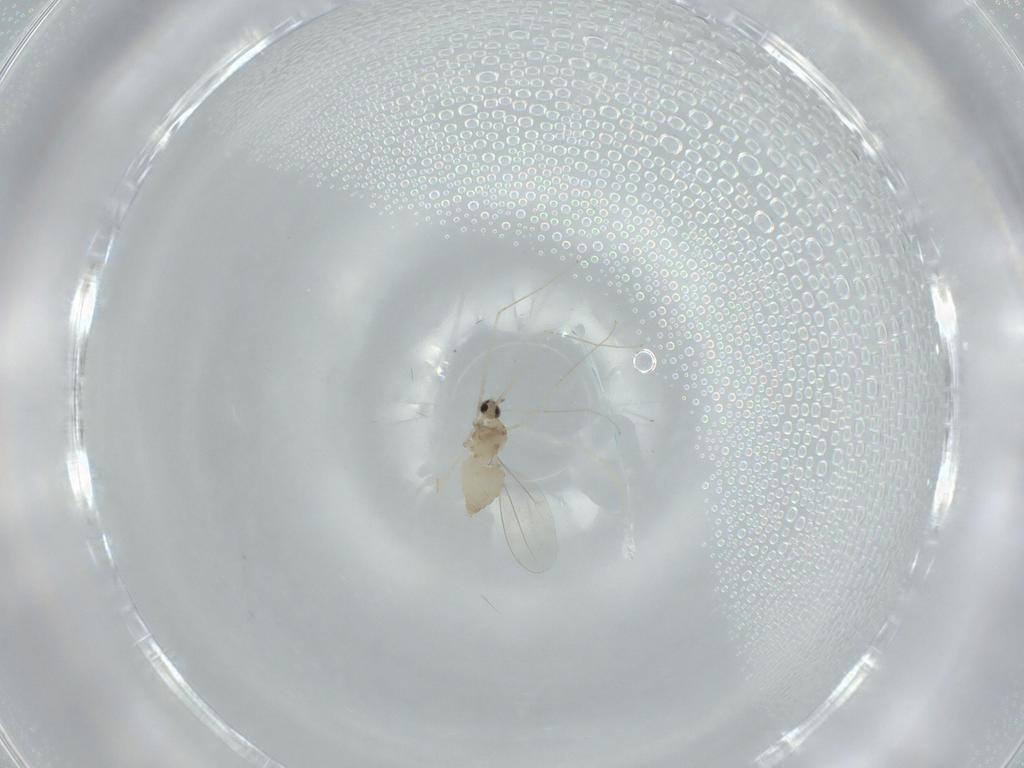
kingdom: Animalia
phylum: Arthropoda
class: Insecta
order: Diptera
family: Cecidomyiidae
